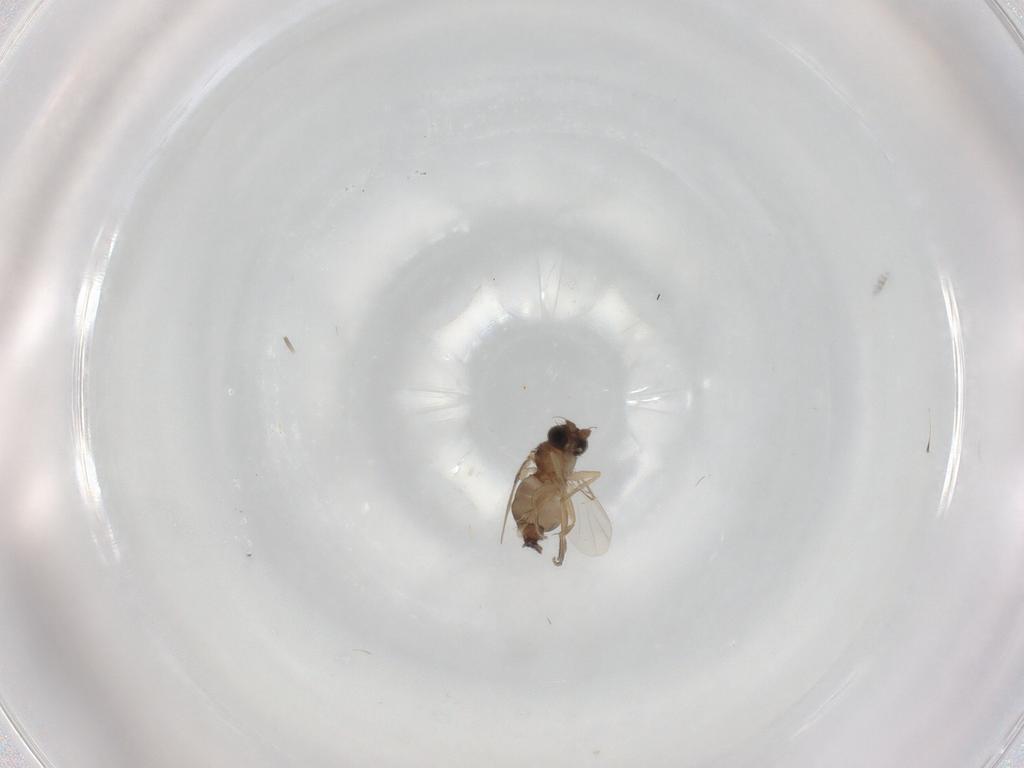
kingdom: Animalia
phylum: Arthropoda
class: Insecta
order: Diptera
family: Phoridae
